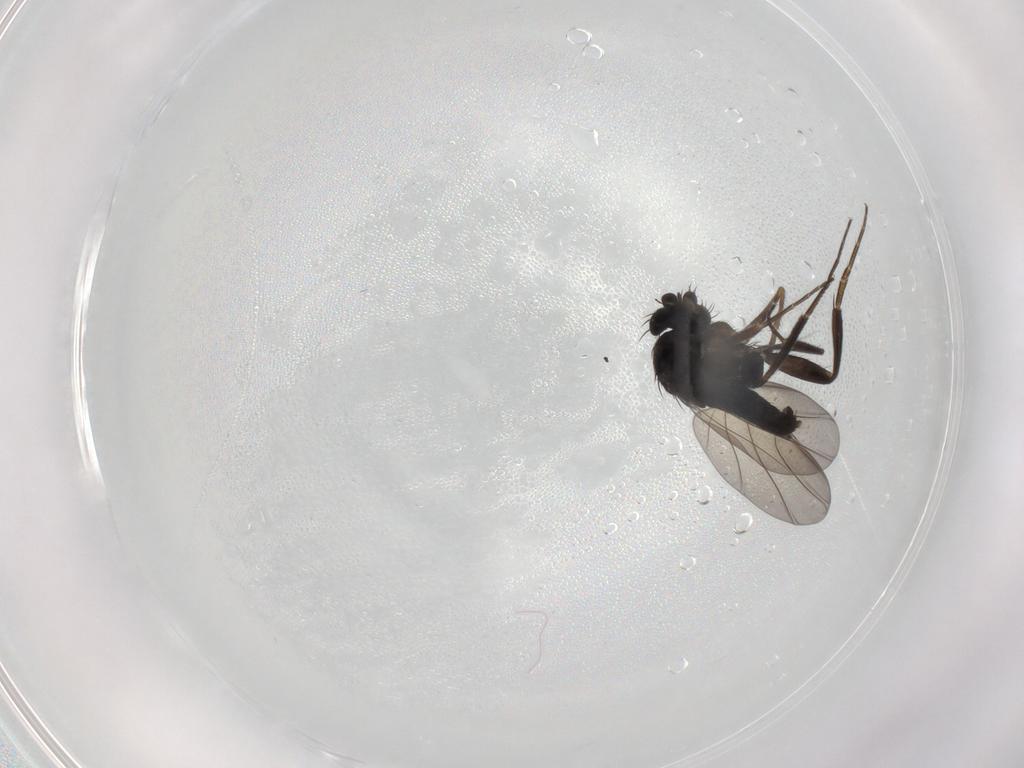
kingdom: Animalia
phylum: Arthropoda
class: Insecta
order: Diptera
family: Phoridae
